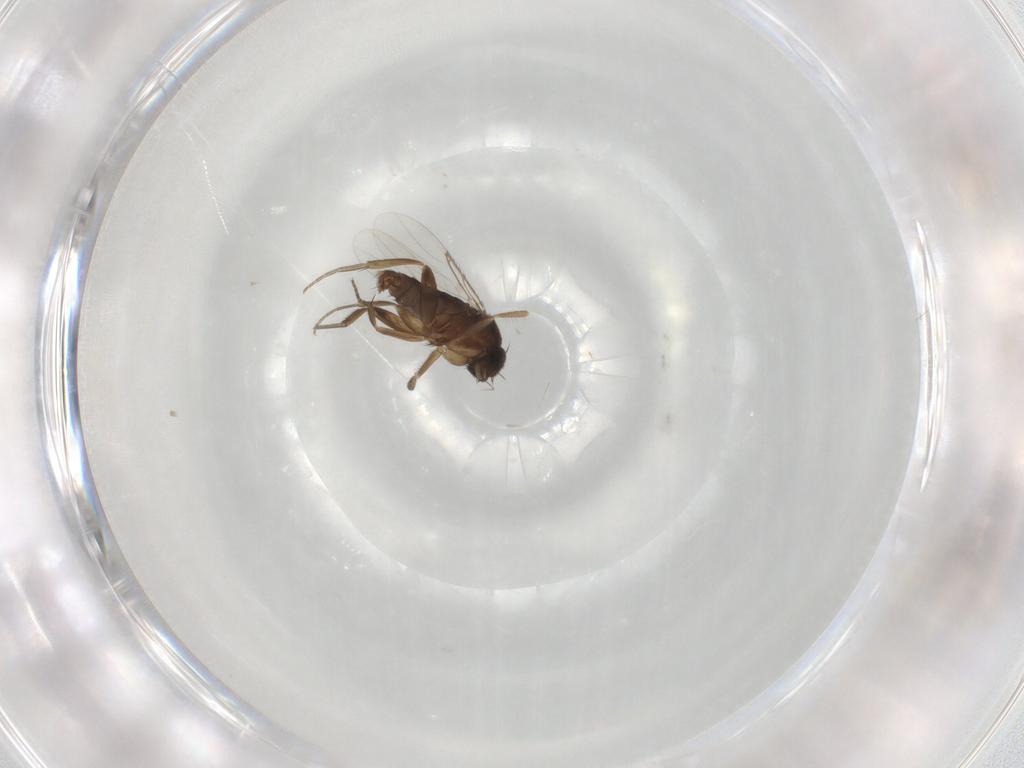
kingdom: Animalia
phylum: Arthropoda
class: Insecta
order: Diptera
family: Phoridae
